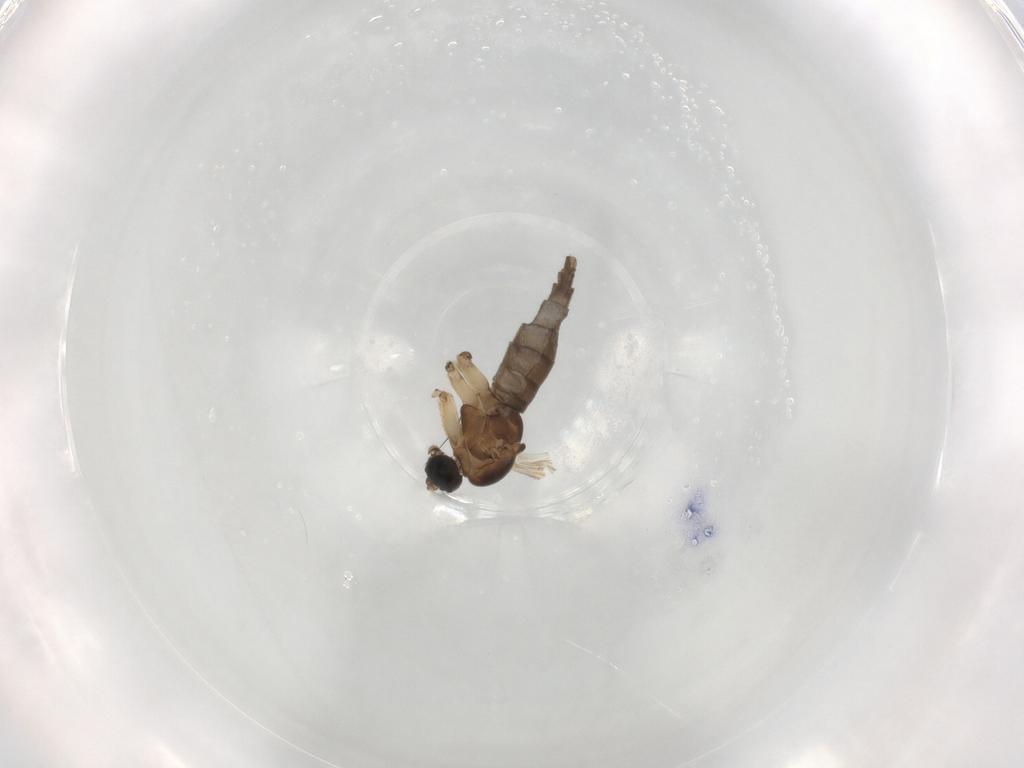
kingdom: Animalia
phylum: Arthropoda
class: Insecta
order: Diptera
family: Sciaridae
